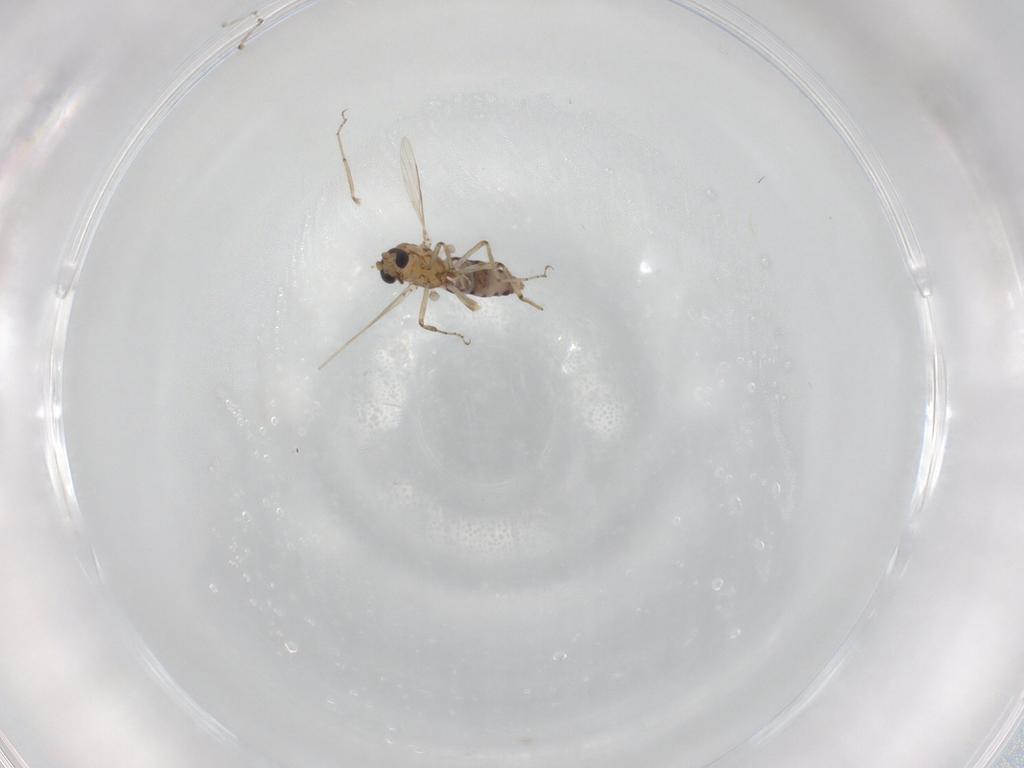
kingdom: Animalia
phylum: Arthropoda
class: Insecta
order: Diptera
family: Ceratopogonidae
